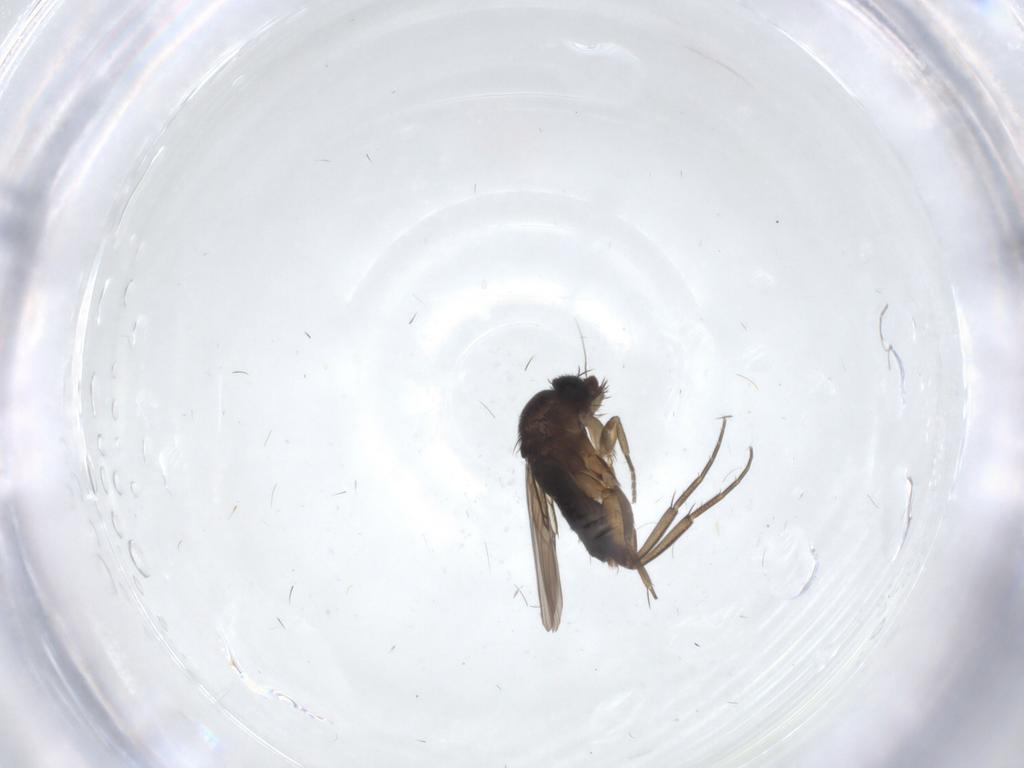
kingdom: Animalia
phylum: Arthropoda
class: Insecta
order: Diptera
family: Phoridae
